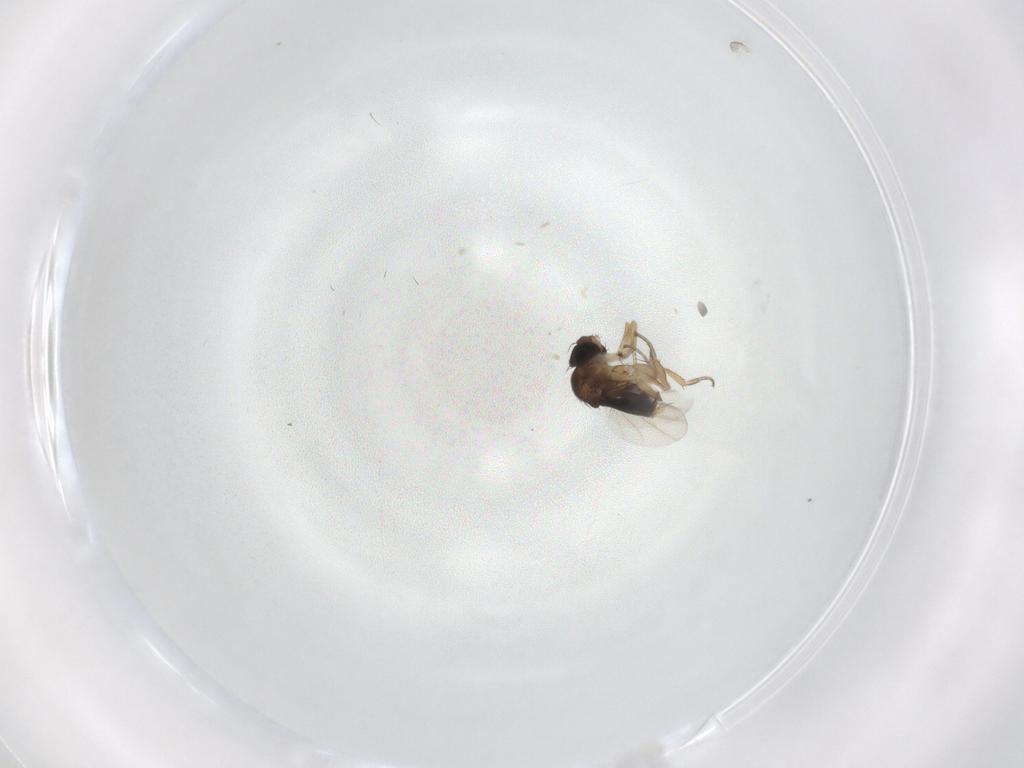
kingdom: Animalia
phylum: Arthropoda
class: Insecta
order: Diptera
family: Phoridae
